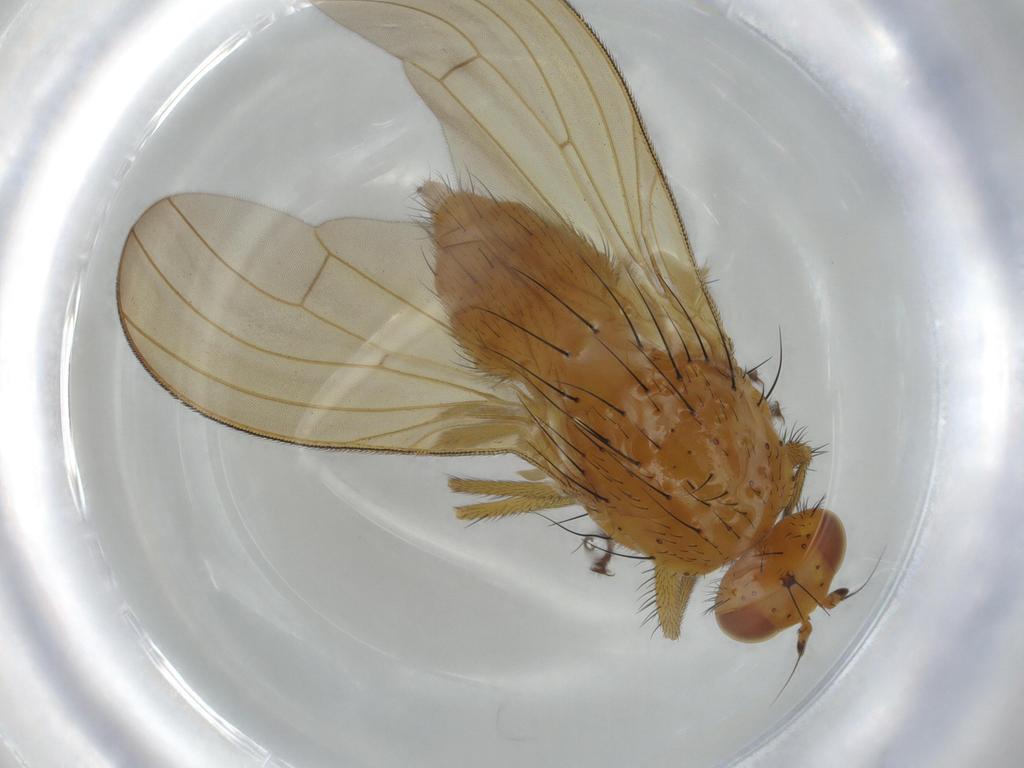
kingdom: Animalia
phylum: Arthropoda
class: Insecta
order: Diptera
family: Lauxaniidae
